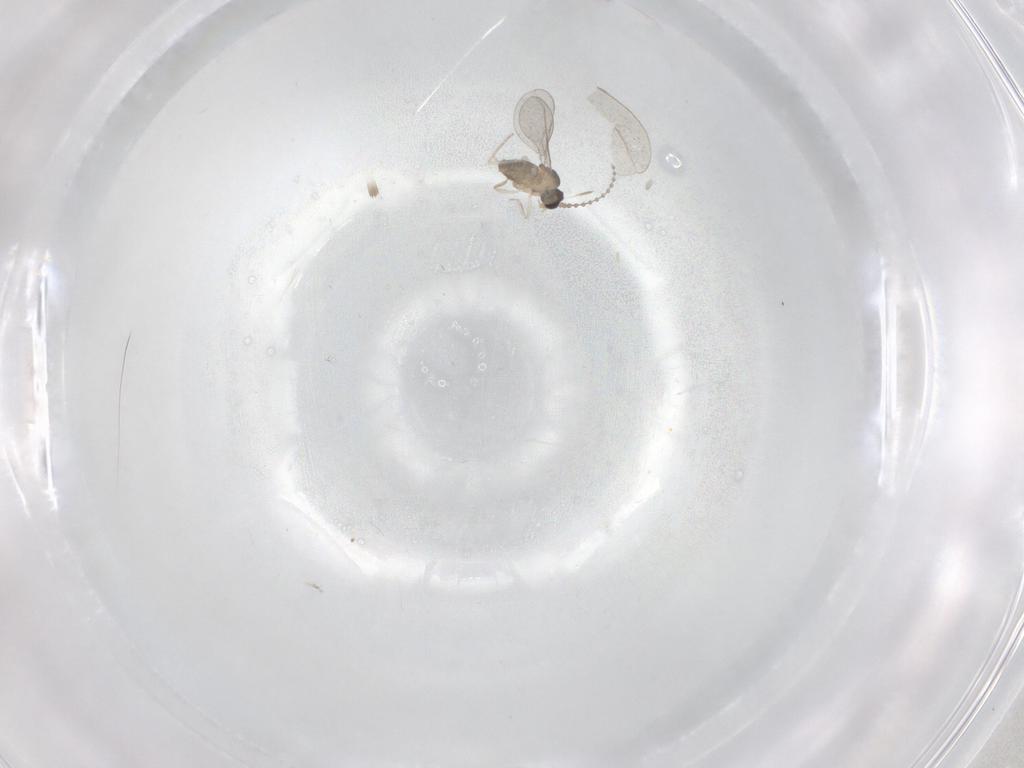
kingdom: Animalia
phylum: Arthropoda
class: Insecta
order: Diptera
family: Cecidomyiidae
